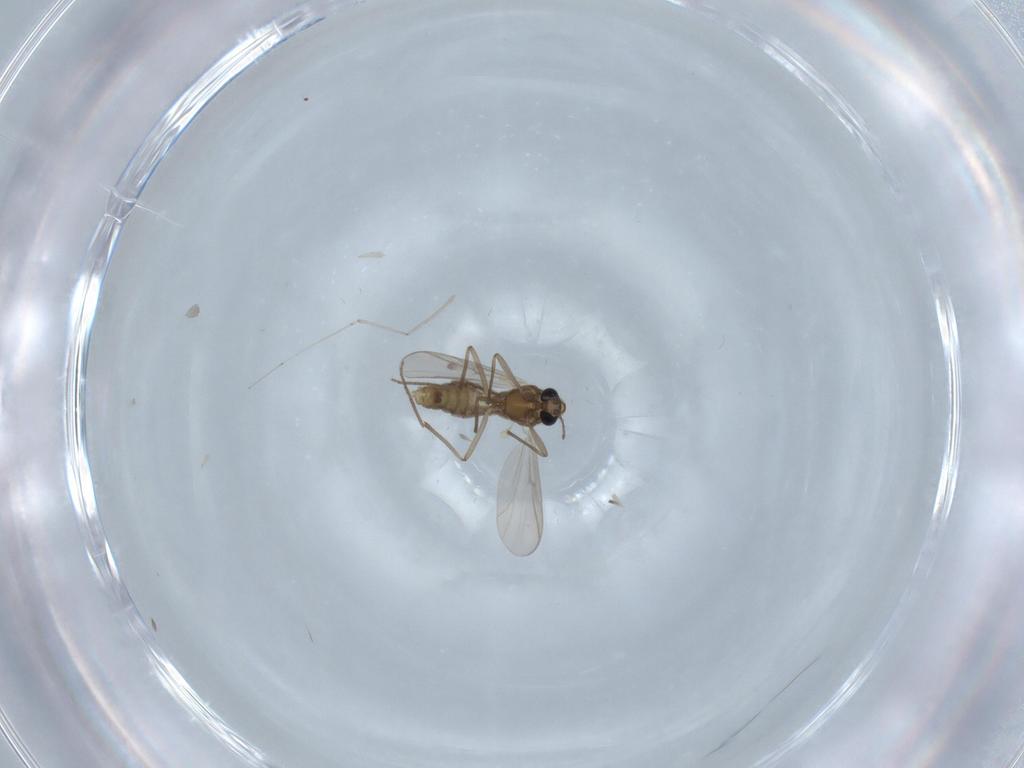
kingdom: Animalia
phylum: Arthropoda
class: Insecta
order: Diptera
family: Chironomidae
